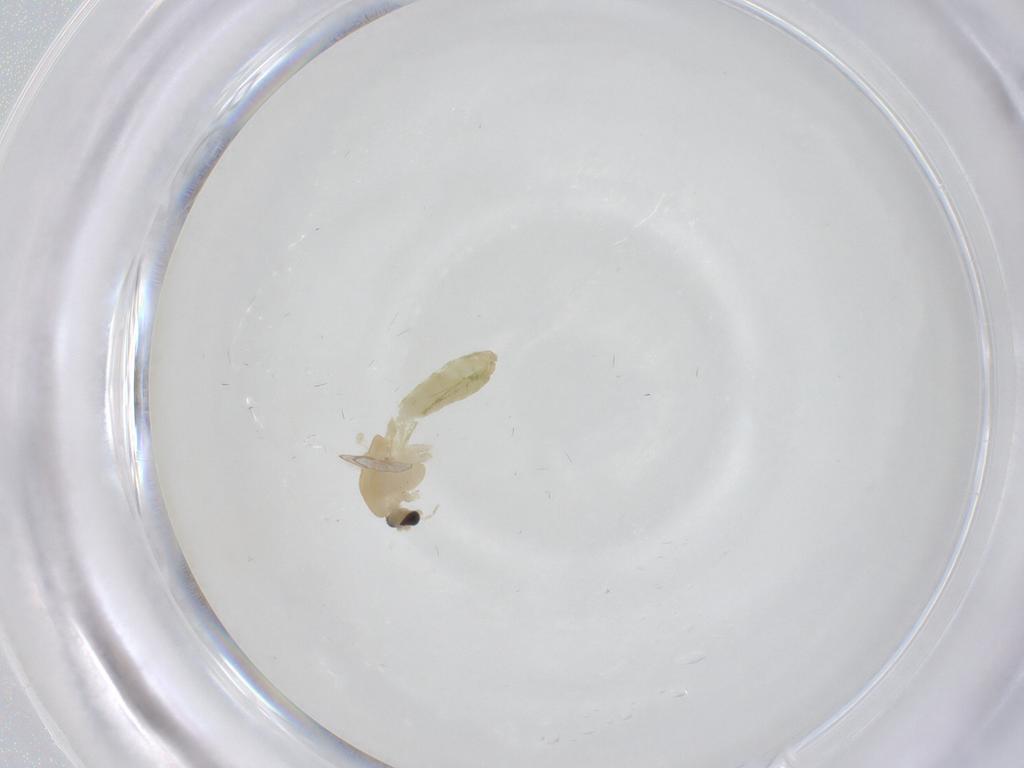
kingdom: Animalia
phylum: Arthropoda
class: Insecta
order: Diptera
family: Chironomidae
